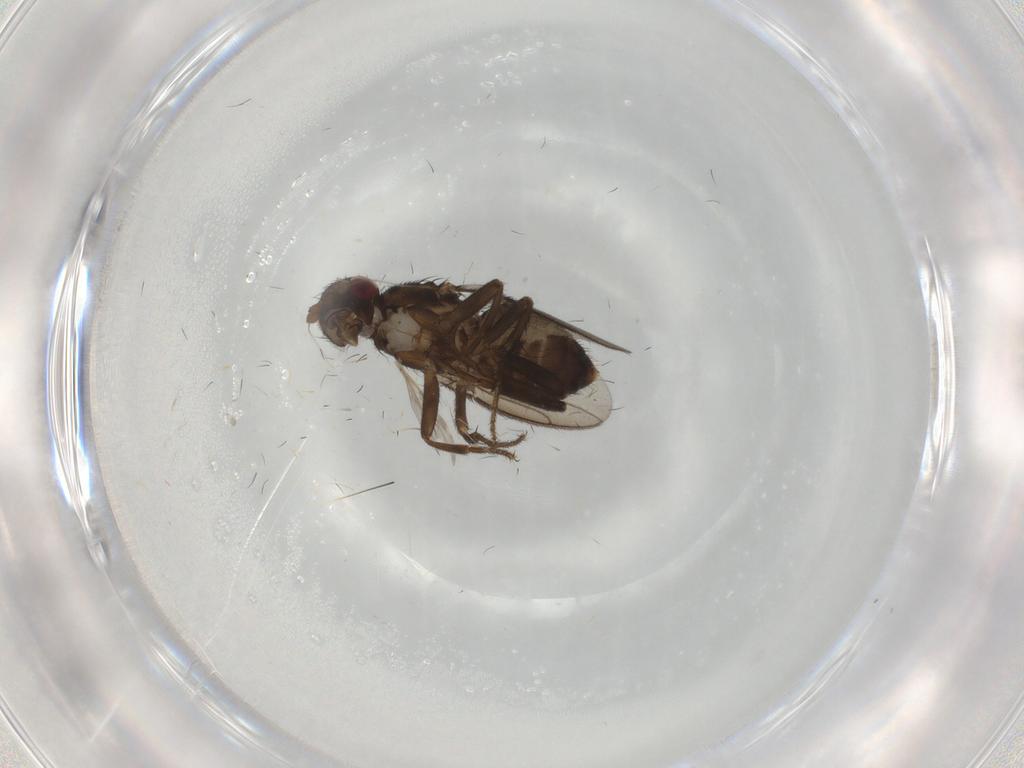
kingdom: Animalia
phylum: Arthropoda
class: Insecta
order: Diptera
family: Sphaeroceridae
